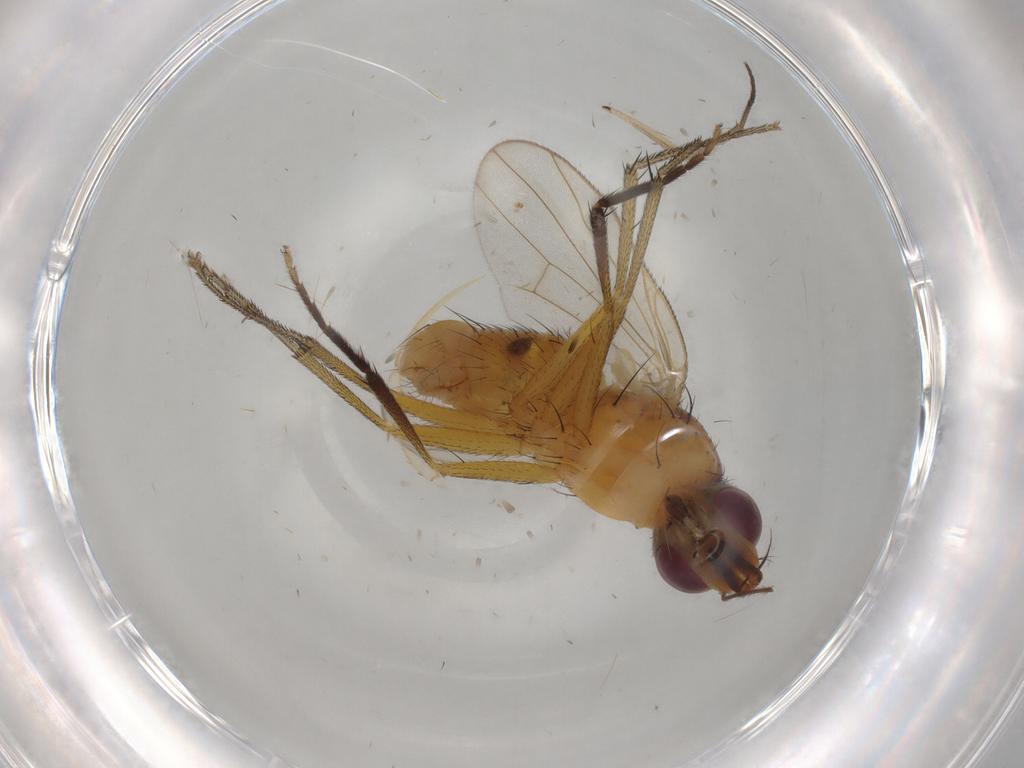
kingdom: Animalia
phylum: Arthropoda
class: Insecta
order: Diptera
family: Muscidae
